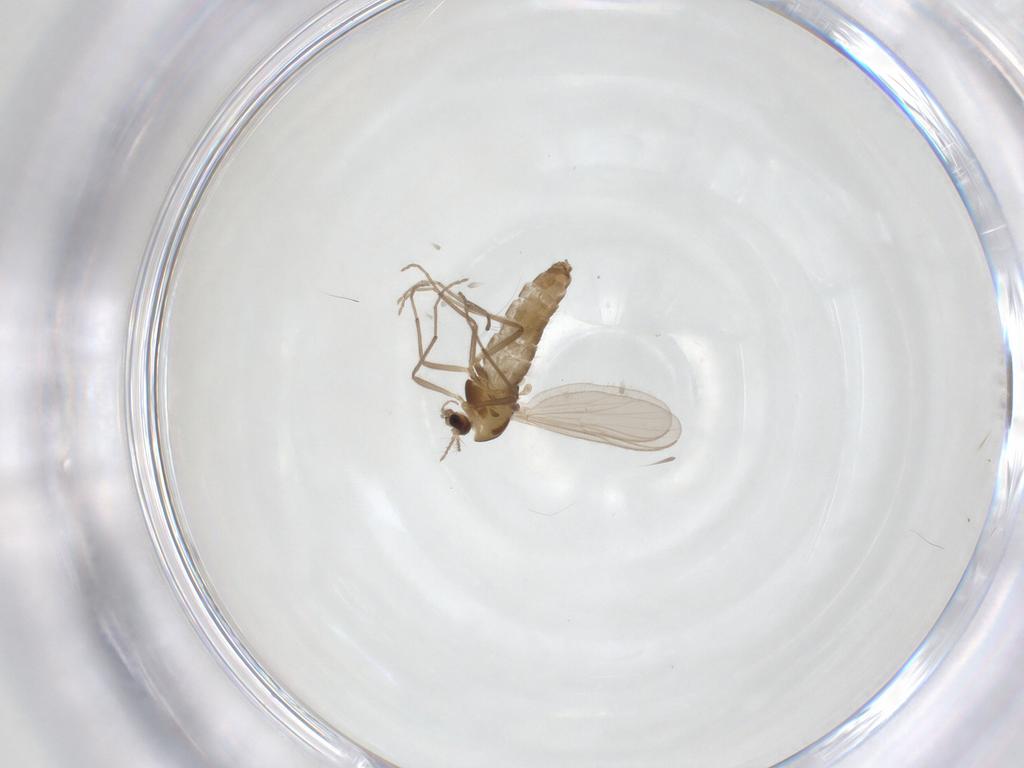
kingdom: Animalia
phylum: Arthropoda
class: Insecta
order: Diptera
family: Chironomidae
